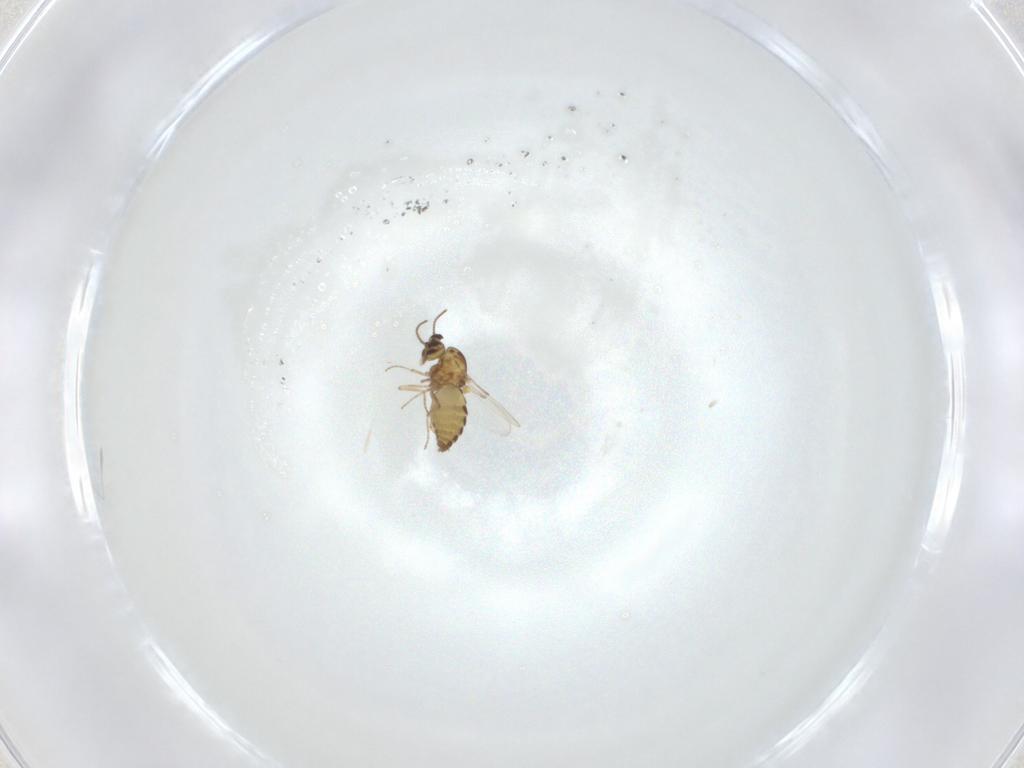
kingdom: Animalia
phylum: Arthropoda
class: Insecta
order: Diptera
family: Ceratopogonidae
